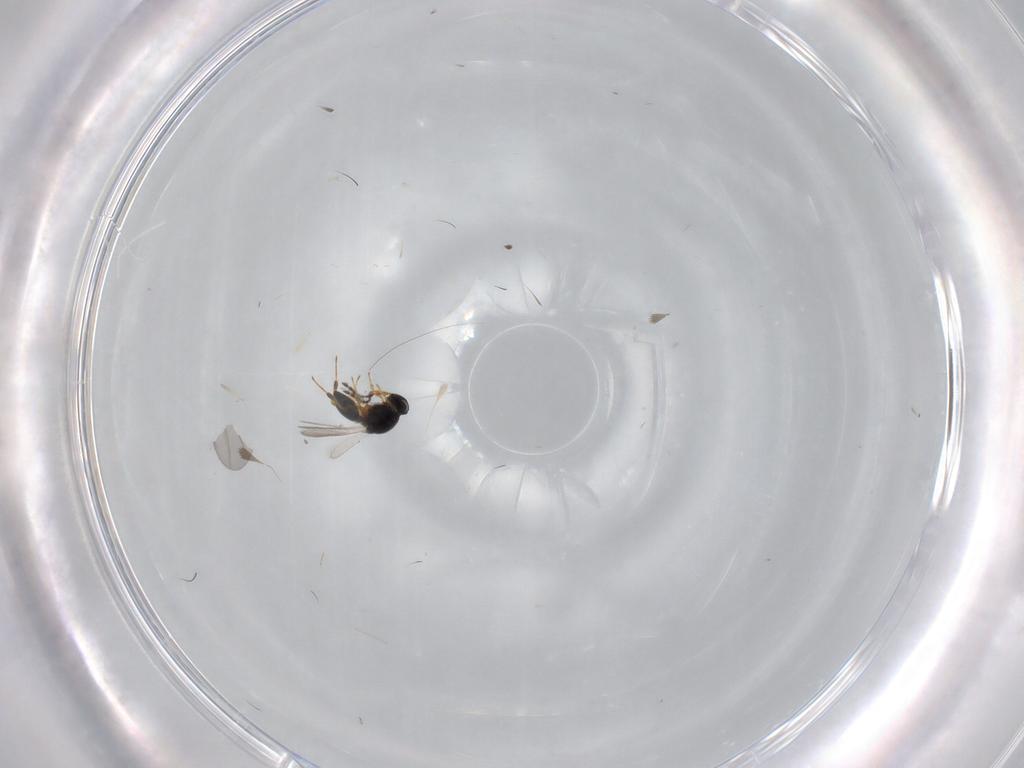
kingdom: Animalia
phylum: Arthropoda
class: Insecta
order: Hymenoptera
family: Platygastridae
